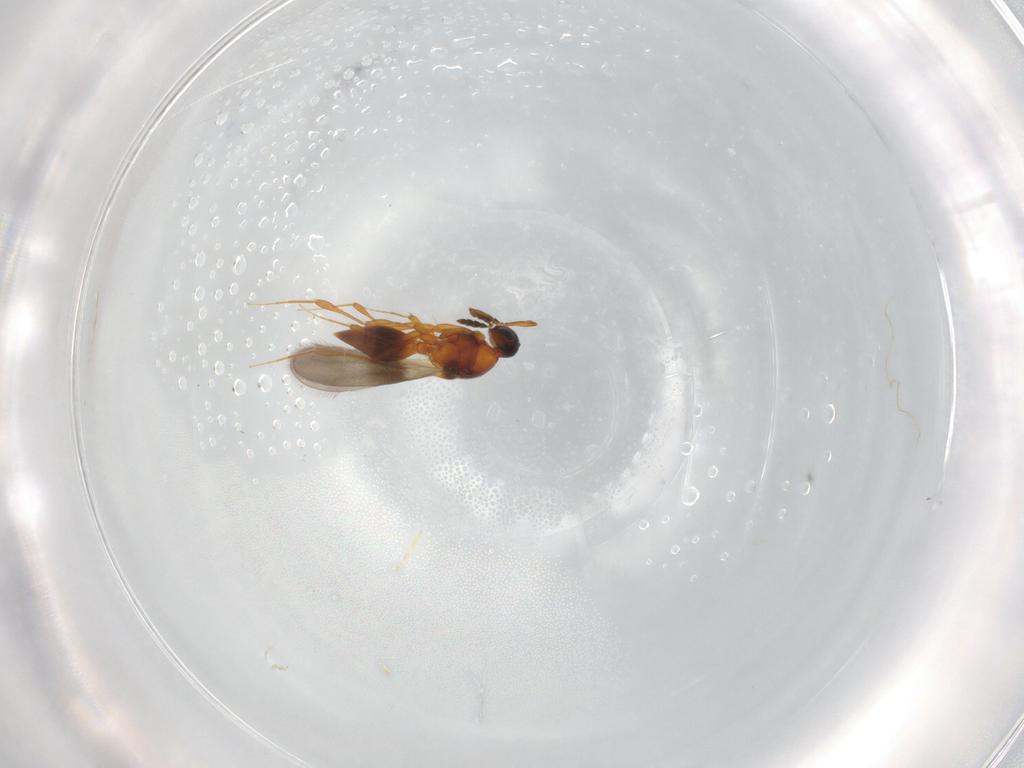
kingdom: Animalia
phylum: Arthropoda
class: Insecta
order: Hymenoptera
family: Platygastridae
